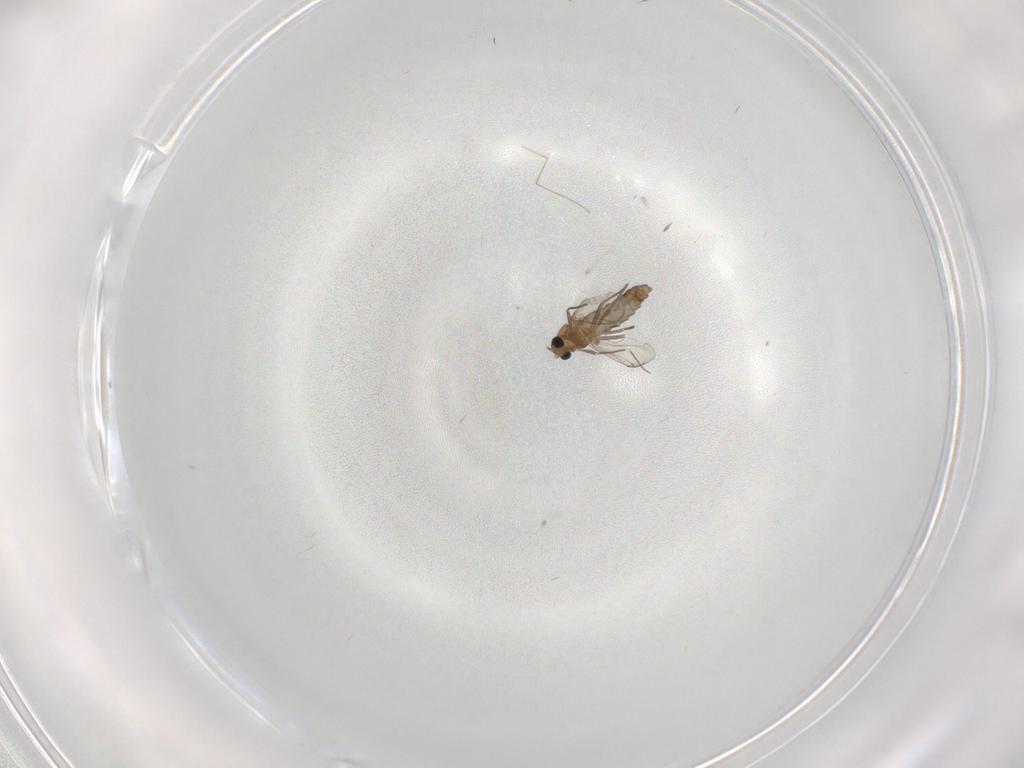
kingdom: Animalia
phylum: Arthropoda
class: Insecta
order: Diptera
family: Cecidomyiidae
